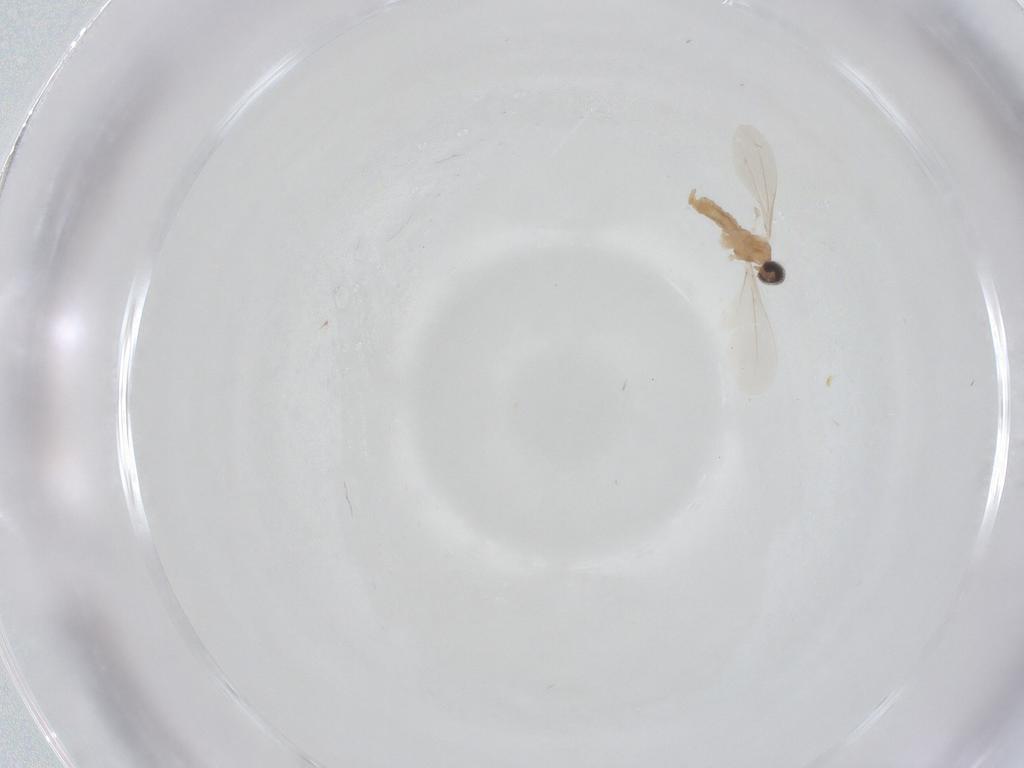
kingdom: Animalia
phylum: Arthropoda
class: Insecta
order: Diptera
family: Cecidomyiidae
